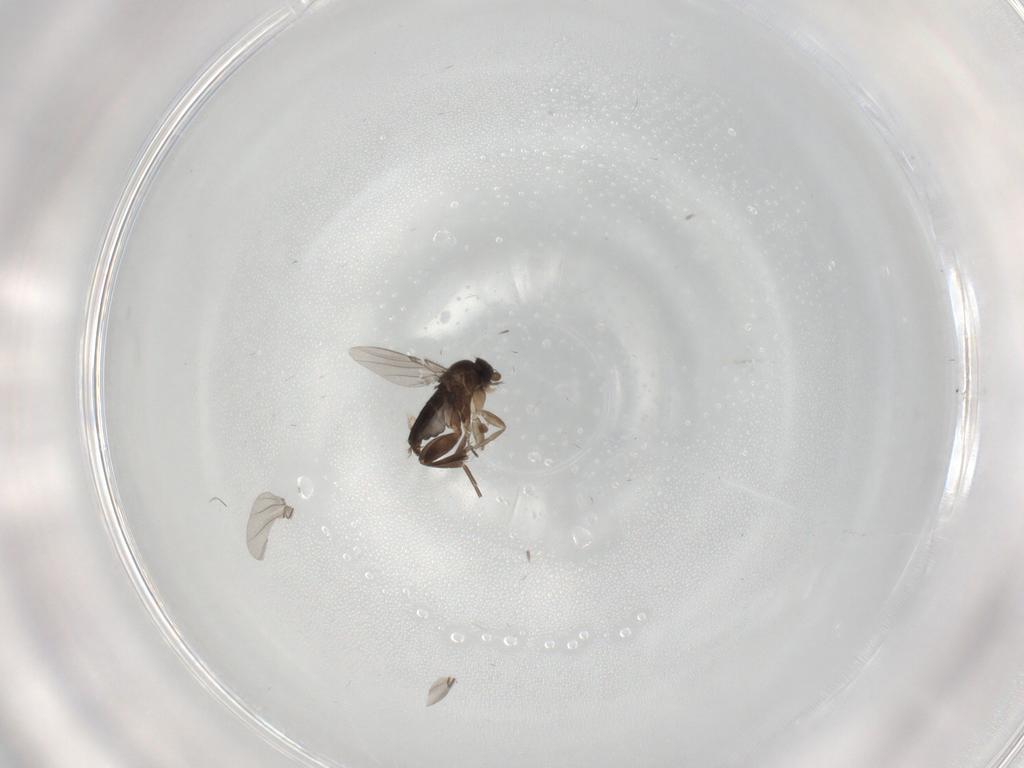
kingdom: Animalia
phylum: Arthropoda
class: Insecta
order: Diptera
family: Phoridae
